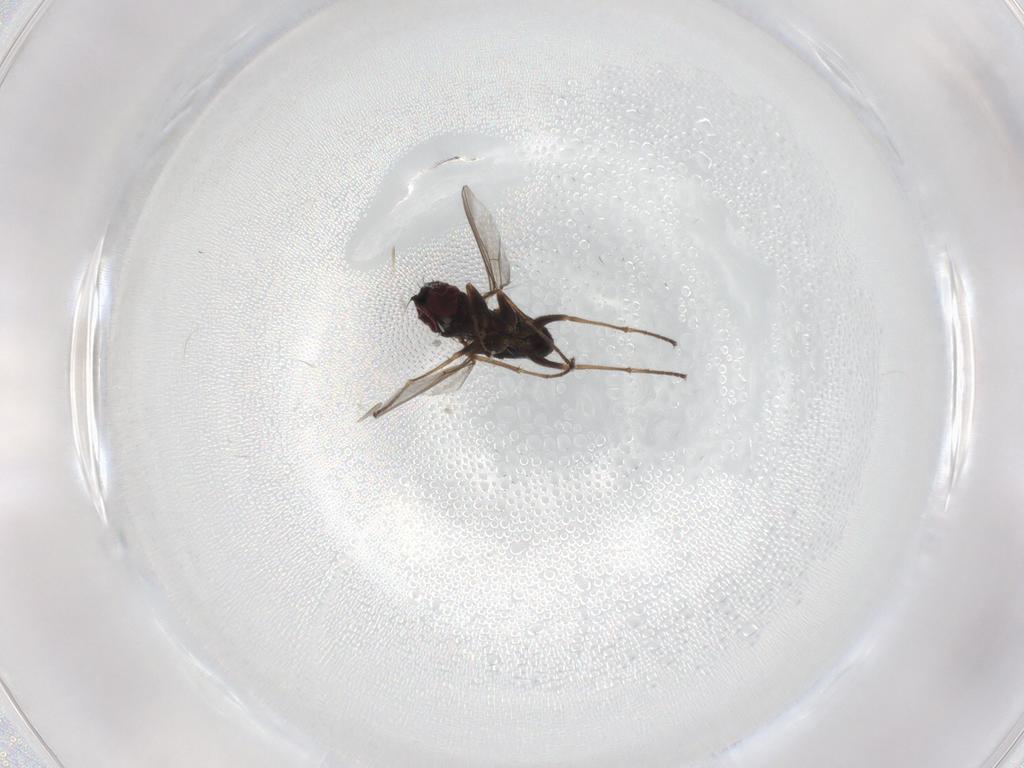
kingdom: Animalia
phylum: Arthropoda
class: Insecta
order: Diptera
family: Dolichopodidae
